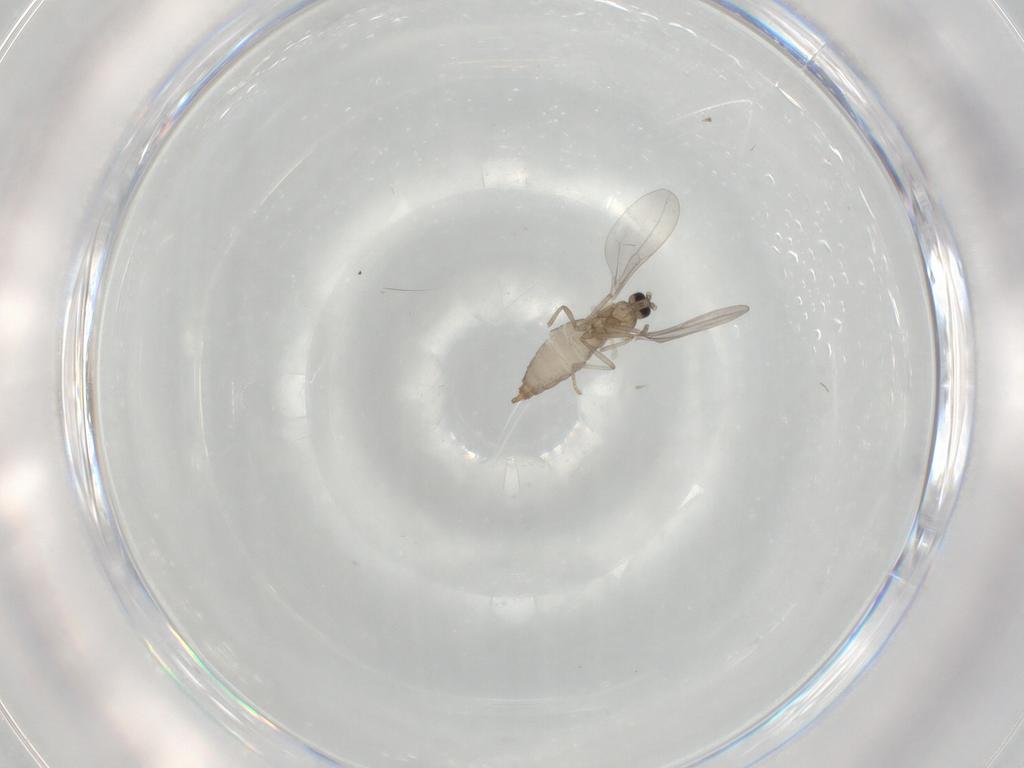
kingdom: Animalia
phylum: Arthropoda
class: Insecta
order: Diptera
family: Cecidomyiidae
